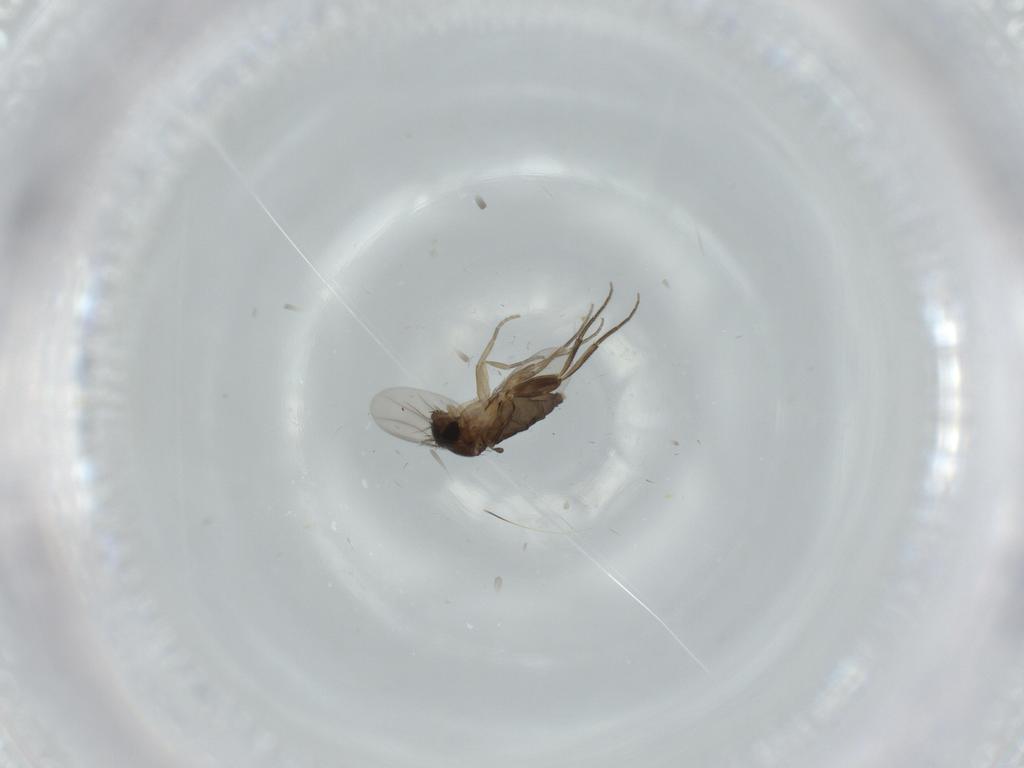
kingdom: Animalia
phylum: Arthropoda
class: Insecta
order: Diptera
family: Phoridae
